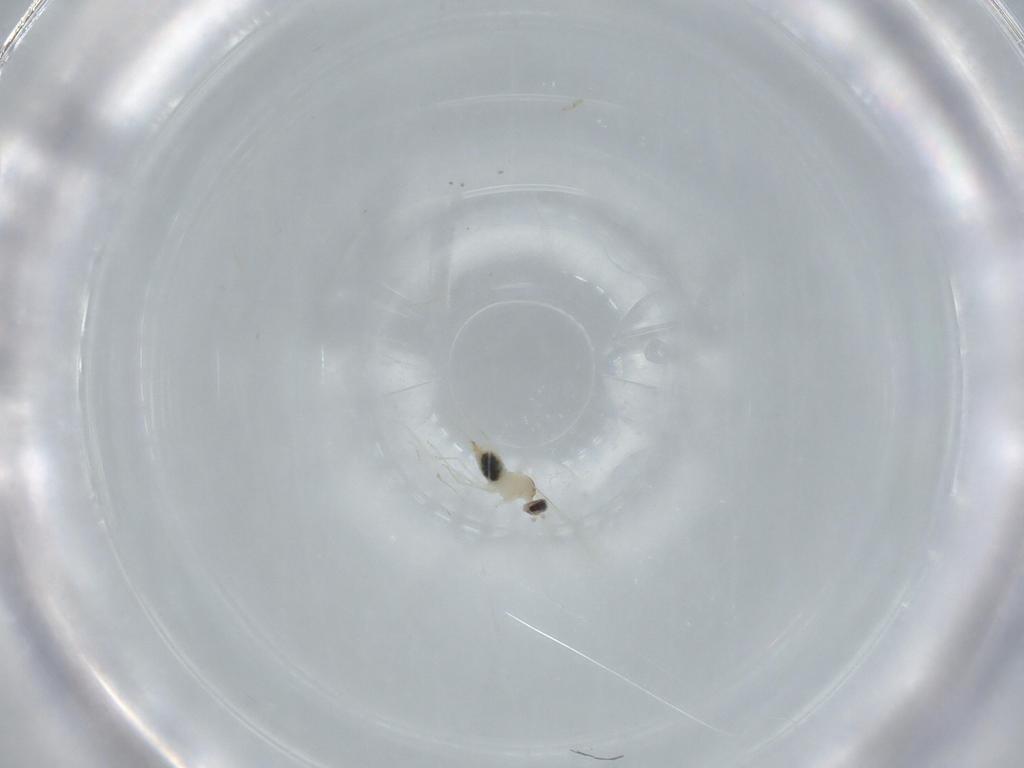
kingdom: Animalia
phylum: Arthropoda
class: Insecta
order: Diptera
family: Cecidomyiidae
